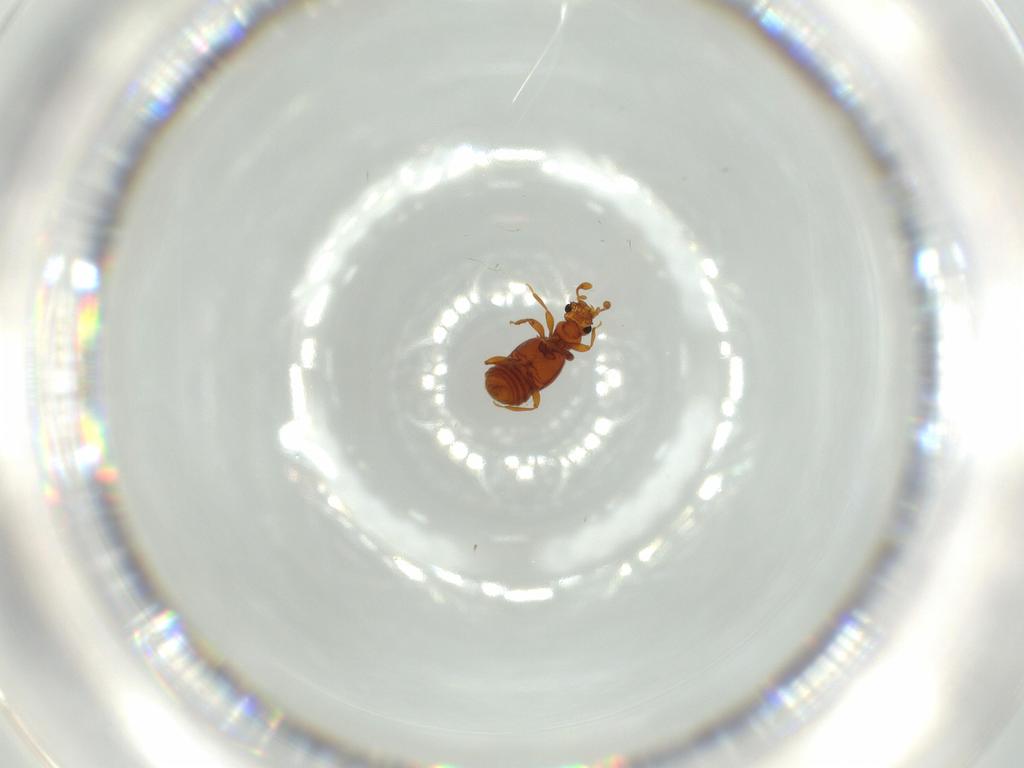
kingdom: Animalia
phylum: Arthropoda
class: Insecta
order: Coleoptera
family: Staphylinidae
